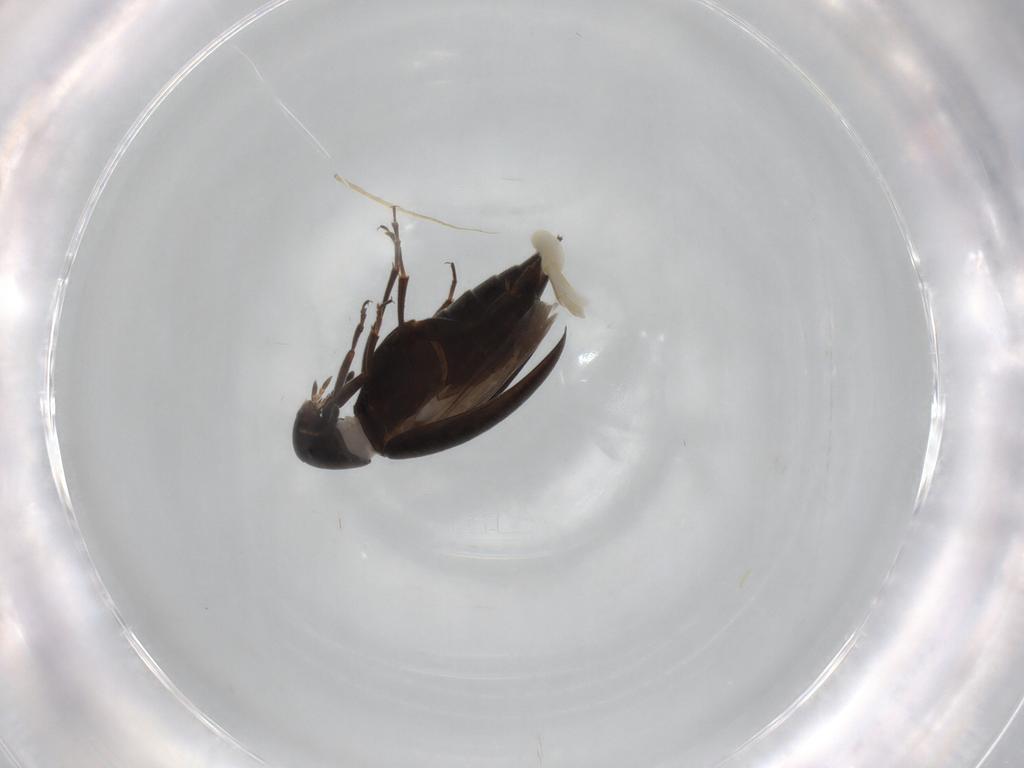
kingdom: Animalia
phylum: Arthropoda
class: Insecta
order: Coleoptera
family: Scraptiidae
